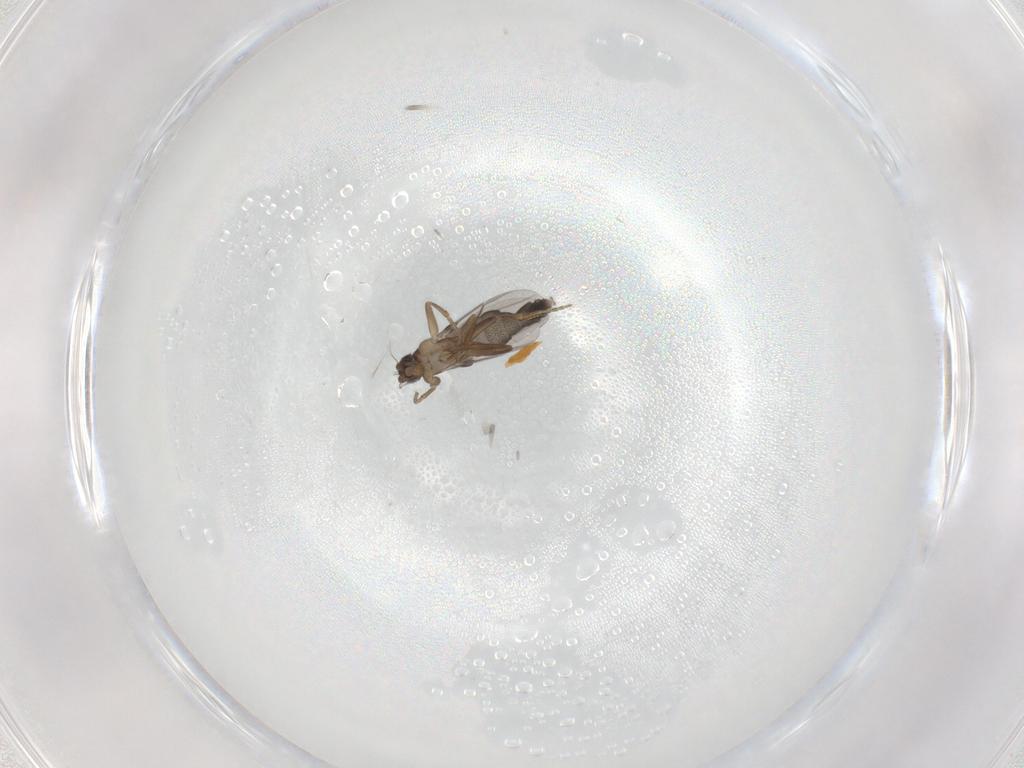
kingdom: Animalia
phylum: Arthropoda
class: Insecta
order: Diptera
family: Phoridae
